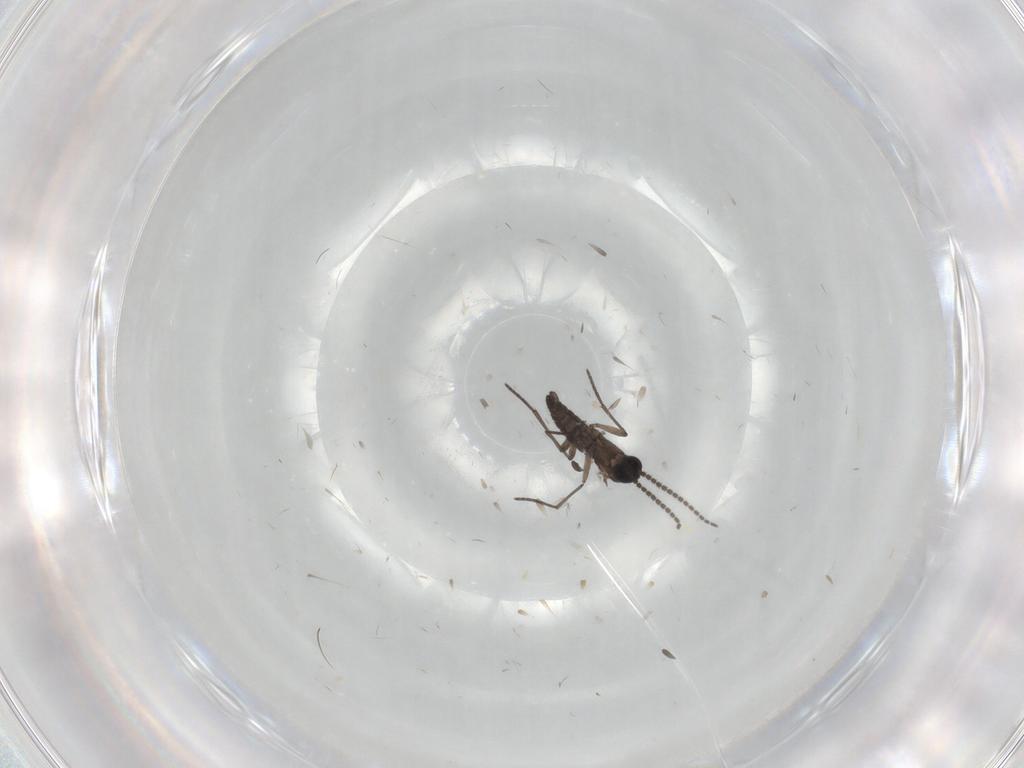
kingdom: Animalia
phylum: Arthropoda
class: Insecta
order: Diptera
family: Sciaridae
